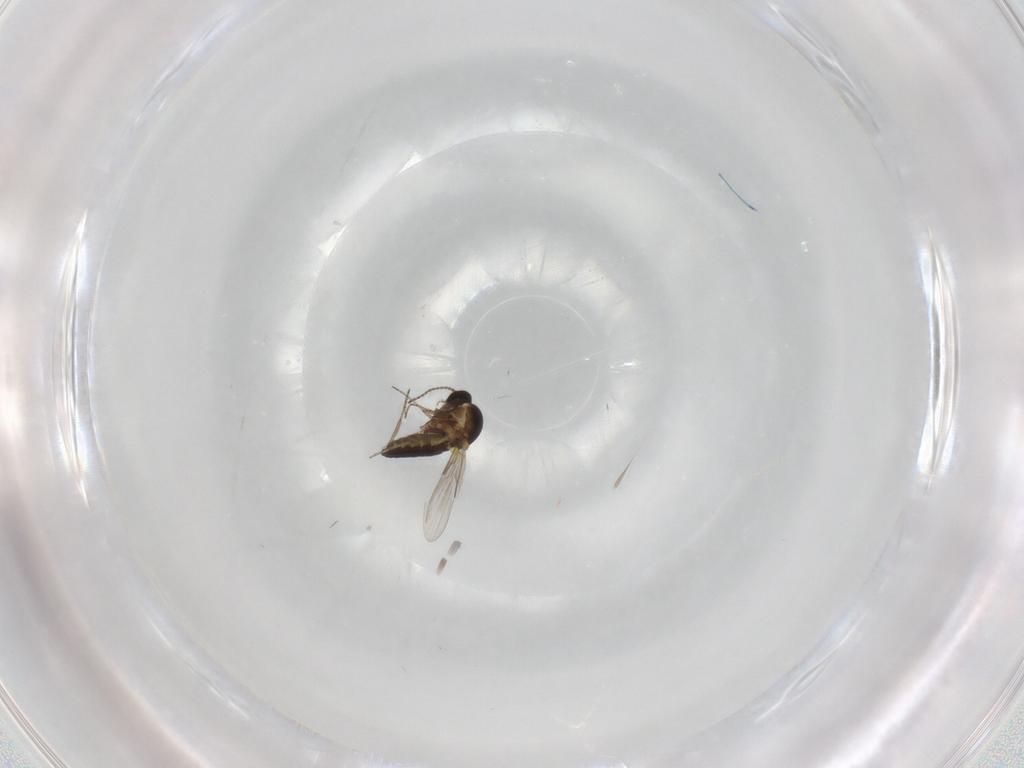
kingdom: Animalia
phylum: Arthropoda
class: Insecta
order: Diptera
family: Ceratopogonidae
